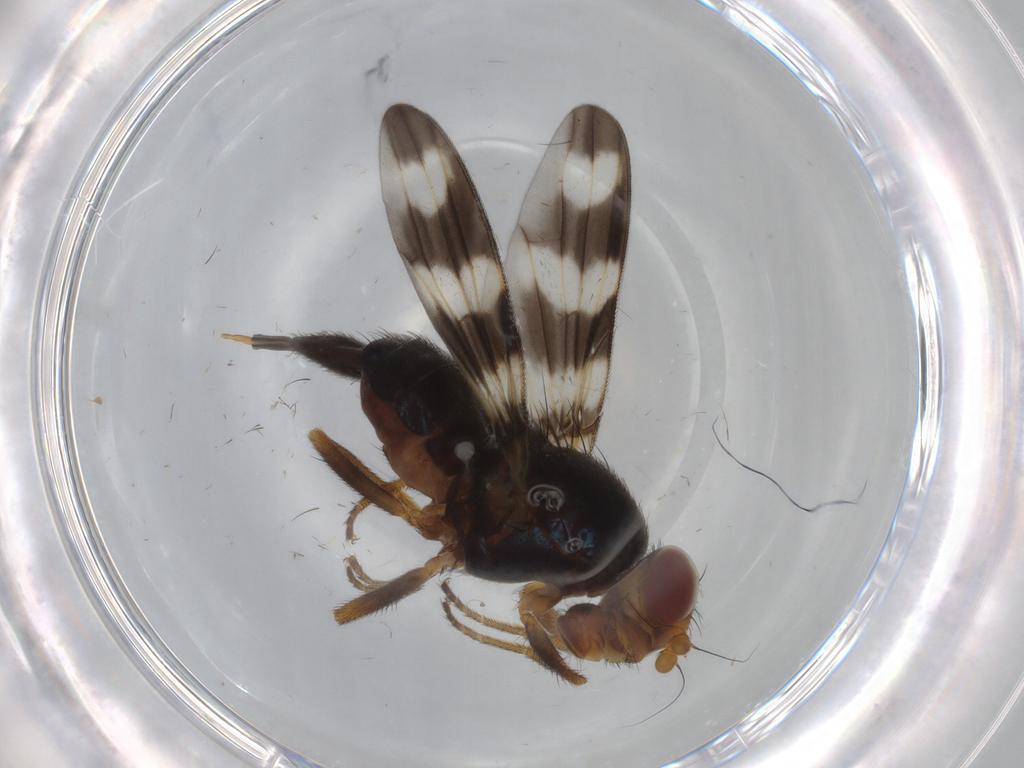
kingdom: Animalia
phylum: Arthropoda
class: Insecta
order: Diptera
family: Ulidiidae
